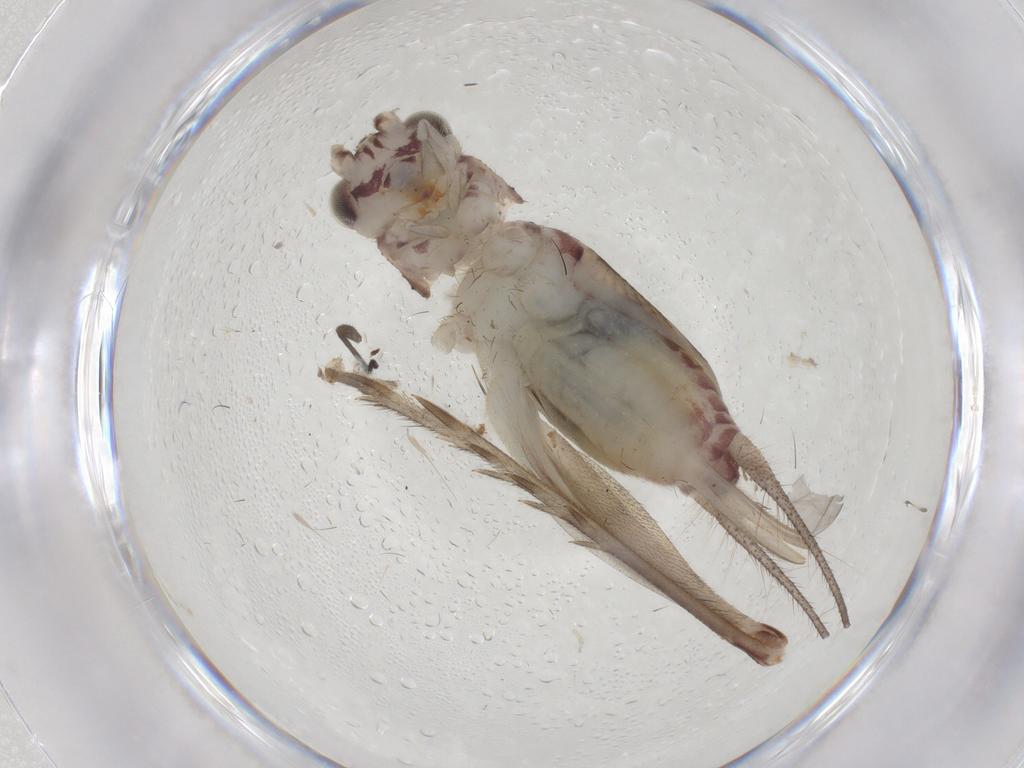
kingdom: Animalia
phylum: Arthropoda
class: Insecta
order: Orthoptera
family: Trigonidiidae
